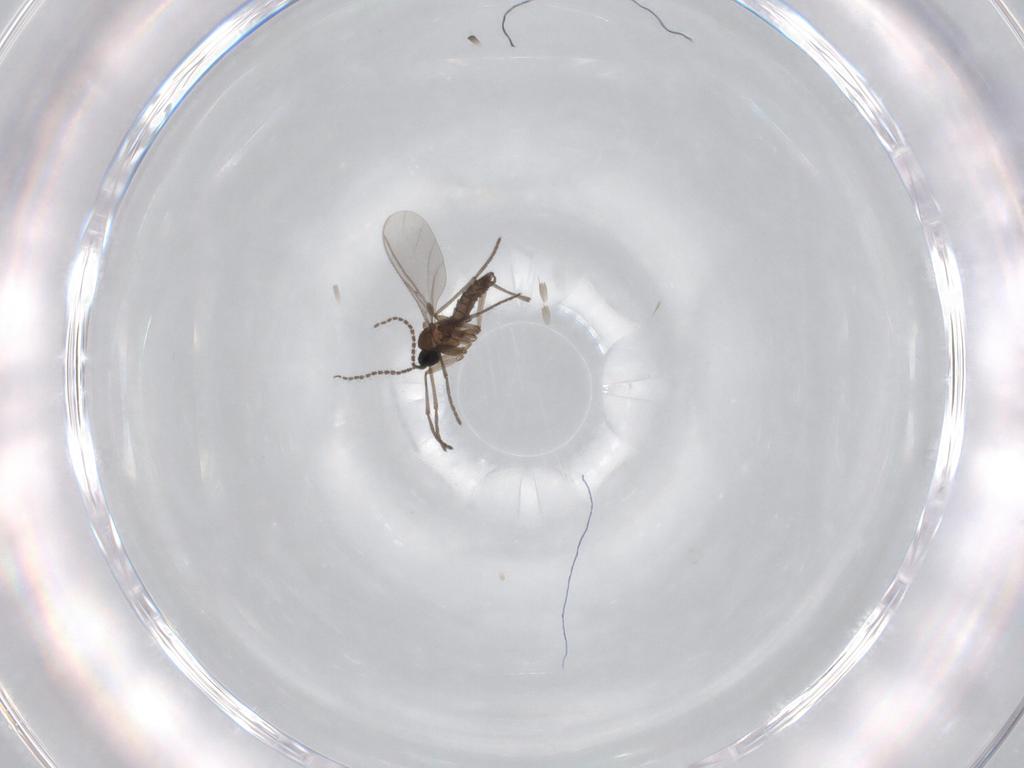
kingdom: Animalia
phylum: Arthropoda
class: Insecta
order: Diptera
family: Sciaridae
